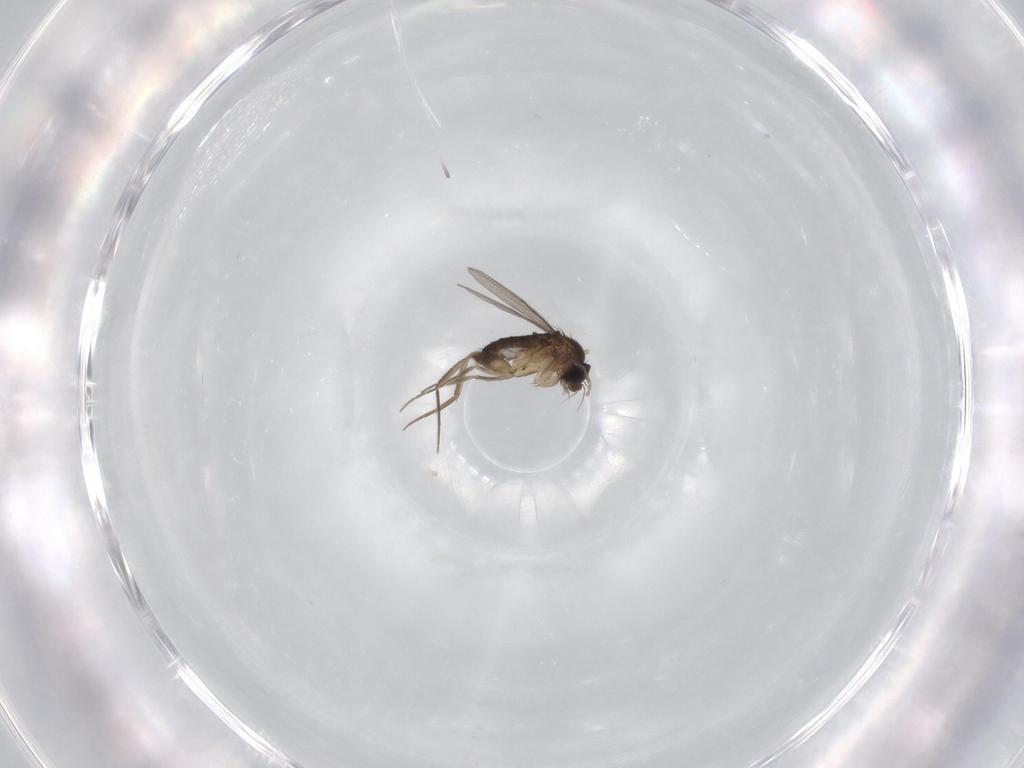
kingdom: Animalia
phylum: Arthropoda
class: Insecta
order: Diptera
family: Phoridae
